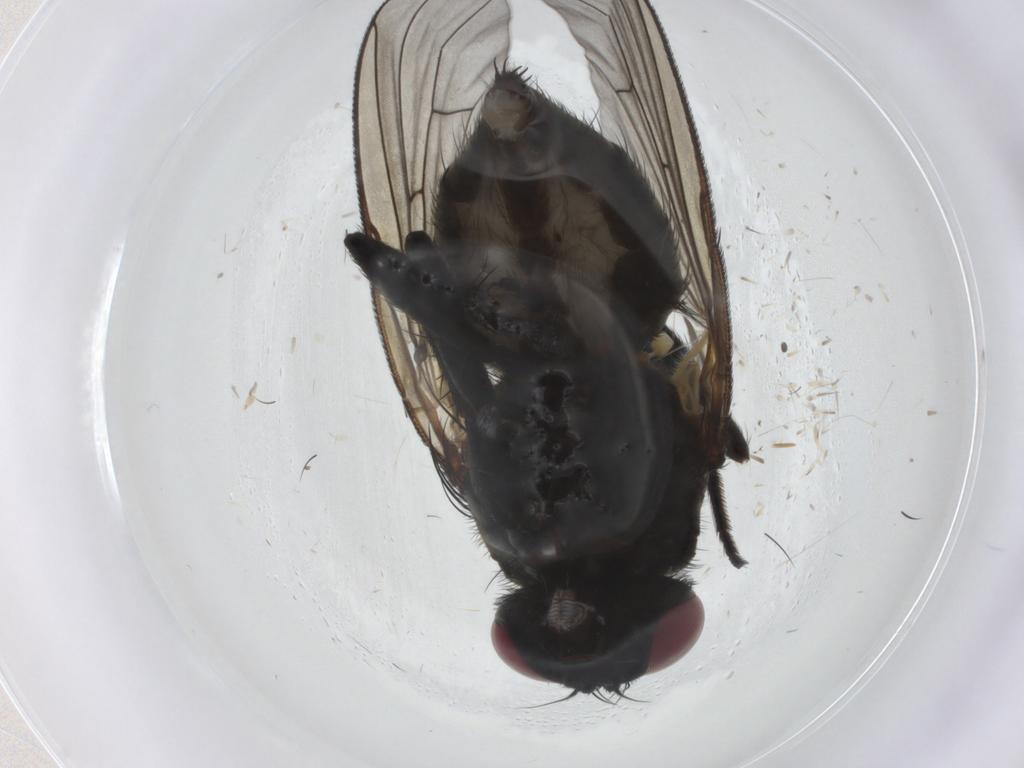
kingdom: Animalia
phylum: Arthropoda
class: Insecta
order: Diptera
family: Muscidae
